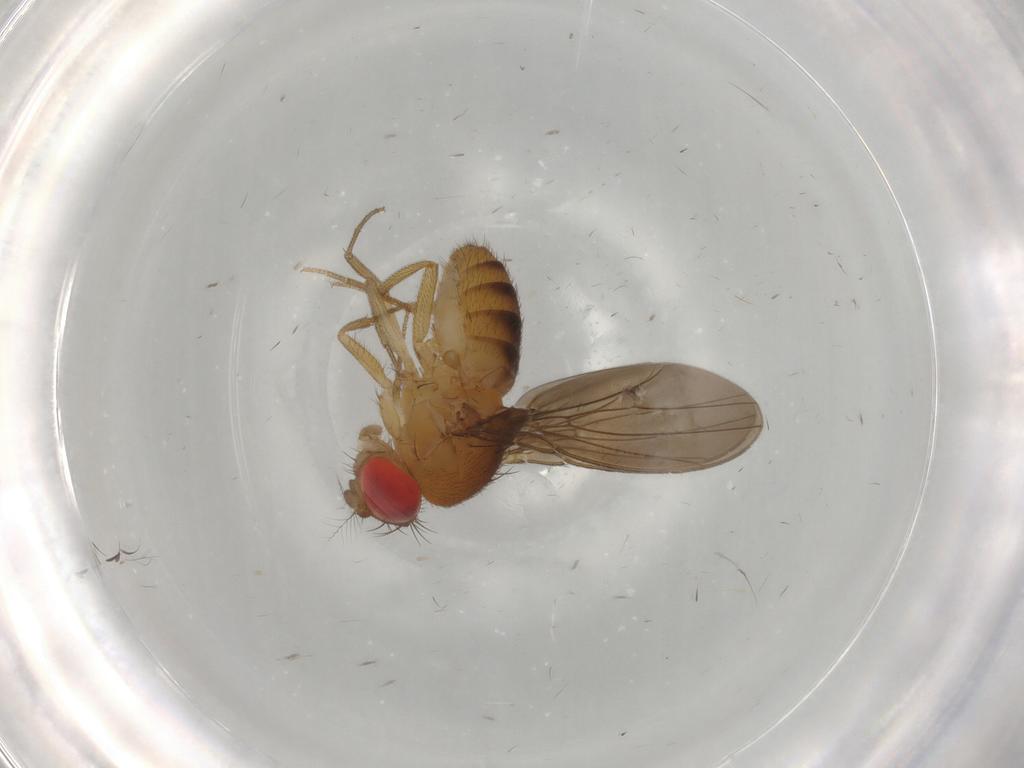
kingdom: Animalia
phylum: Arthropoda
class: Insecta
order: Diptera
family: Drosophilidae
